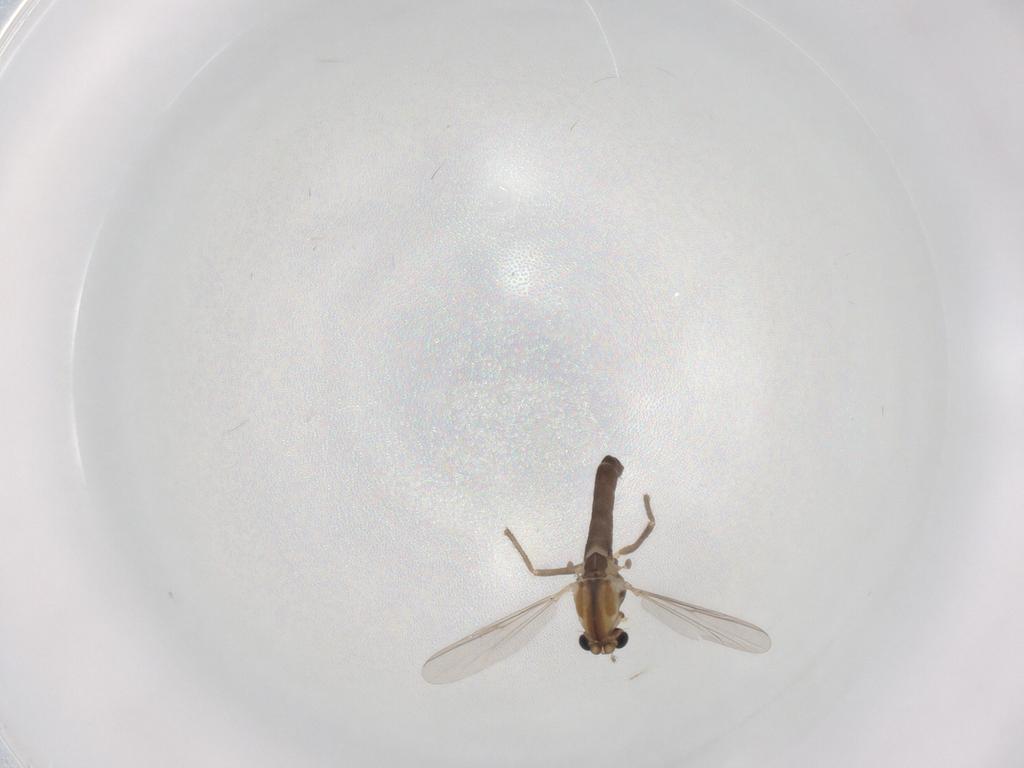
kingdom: Animalia
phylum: Arthropoda
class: Insecta
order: Diptera
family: Chironomidae
